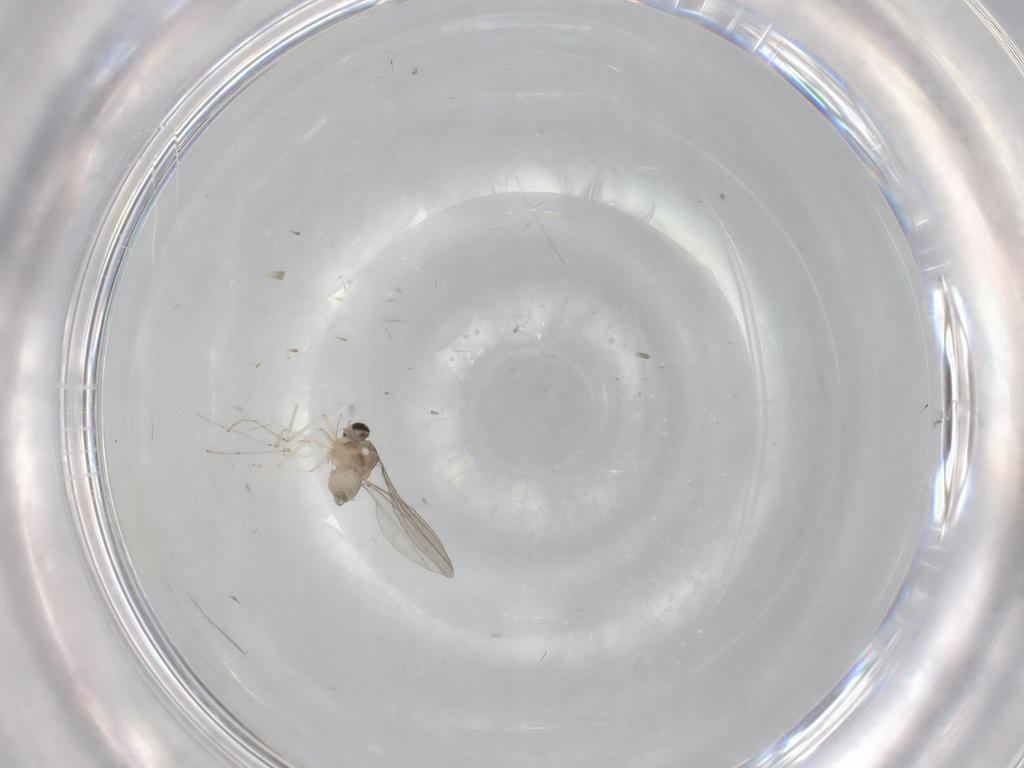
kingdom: Animalia
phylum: Arthropoda
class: Insecta
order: Diptera
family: Cecidomyiidae
